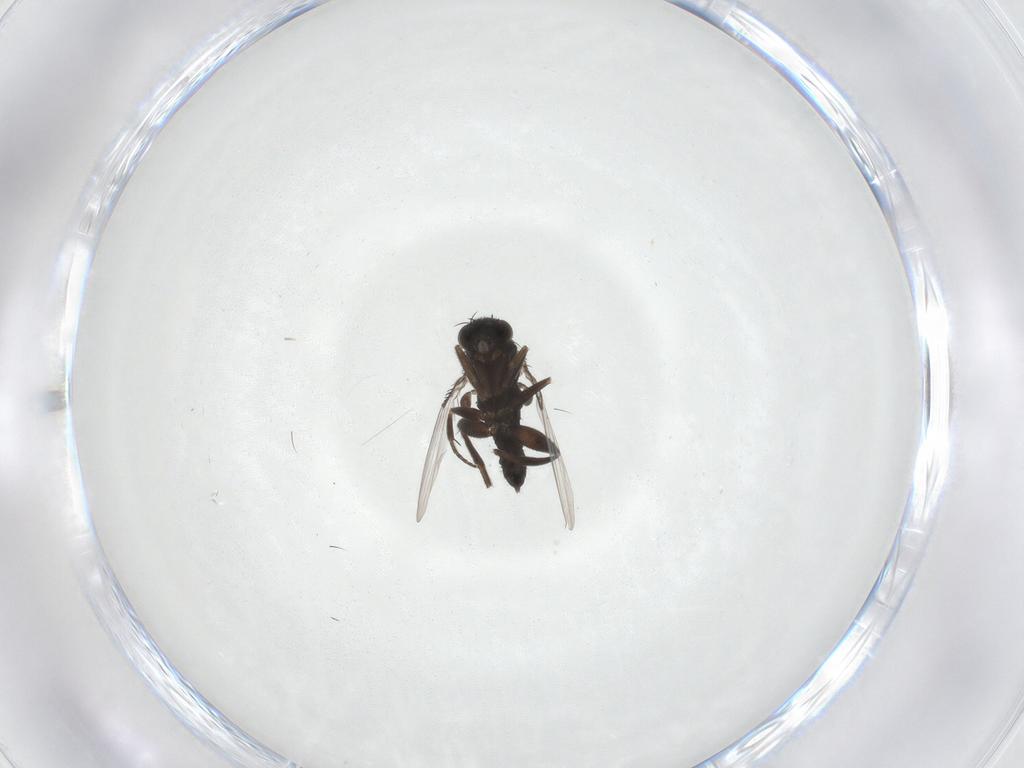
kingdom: Animalia
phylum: Arthropoda
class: Insecta
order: Diptera
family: Phoridae
